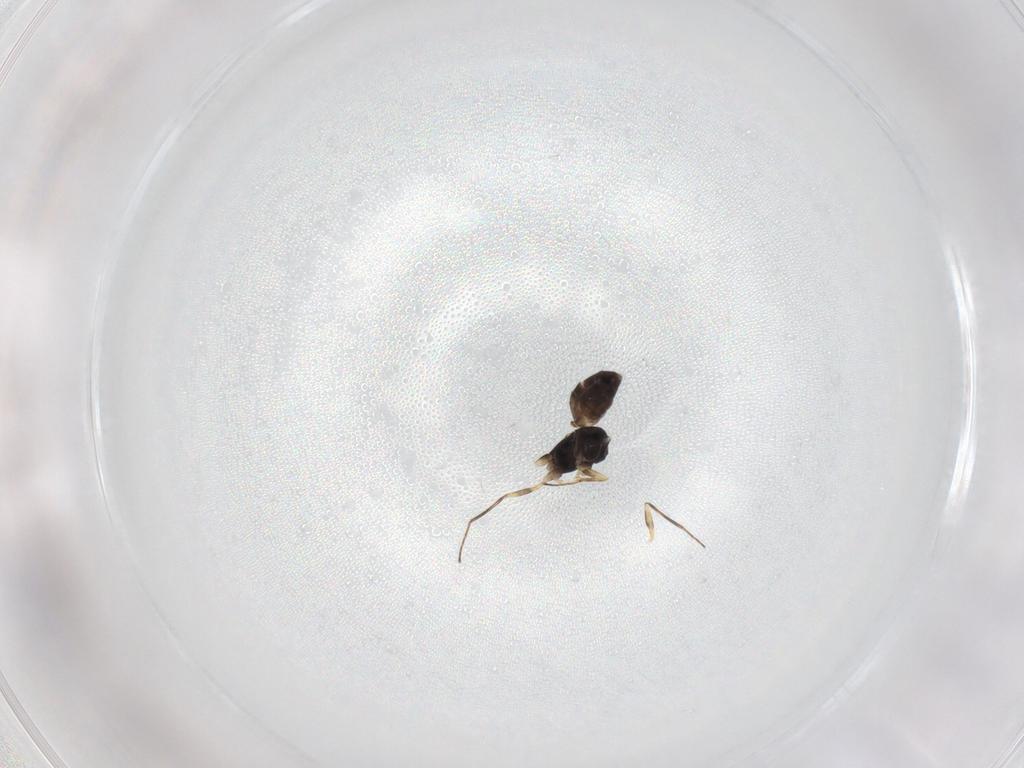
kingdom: Animalia
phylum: Arthropoda
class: Insecta
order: Hymenoptera
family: Mymaridae
